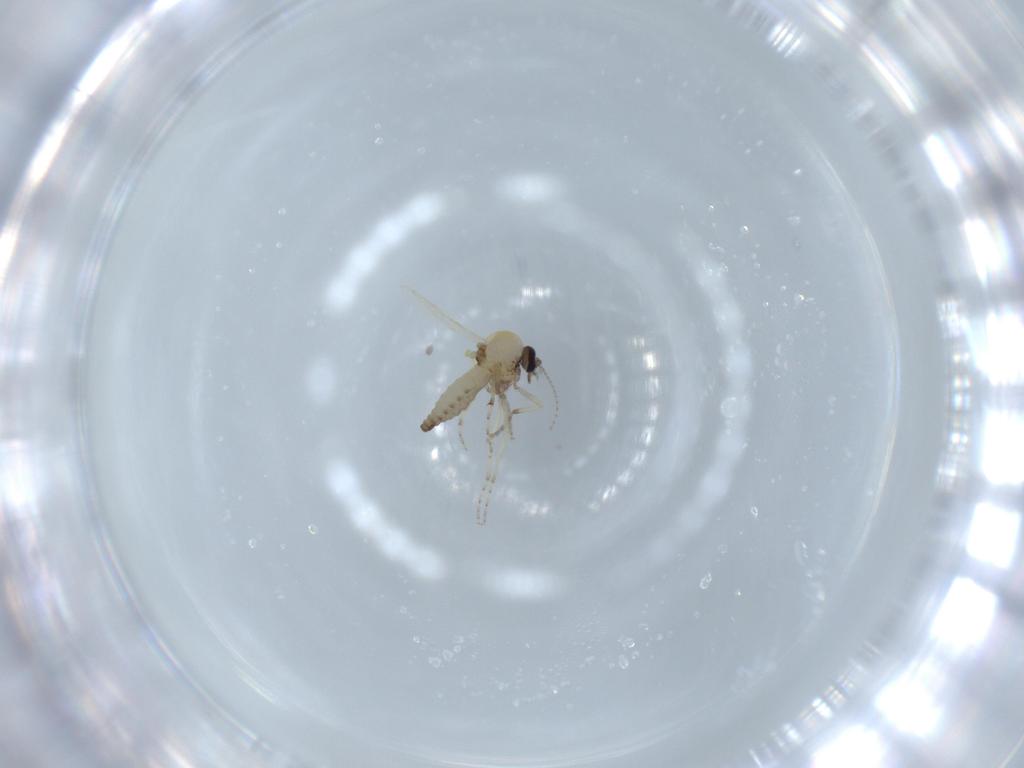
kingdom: Animalia
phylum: Arthropoda
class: Insecta
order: Diptera
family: Ceratopogonidae
